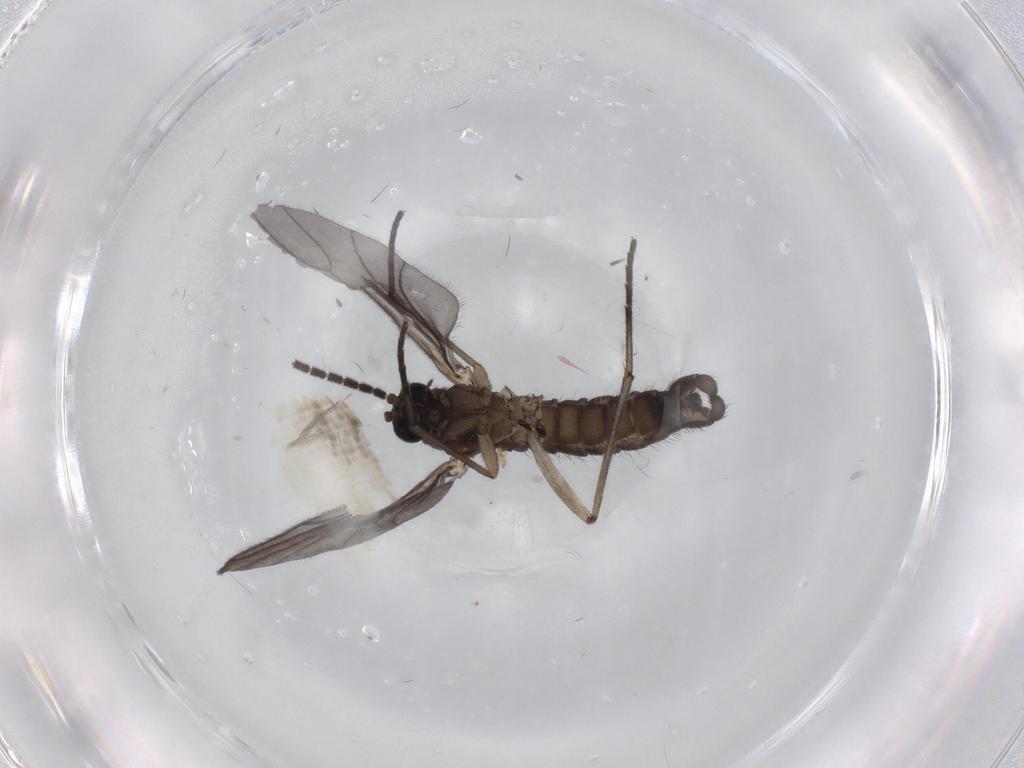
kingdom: Animalia
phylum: Arthropoda
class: Insecta
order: Diptera
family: Sciaridae
